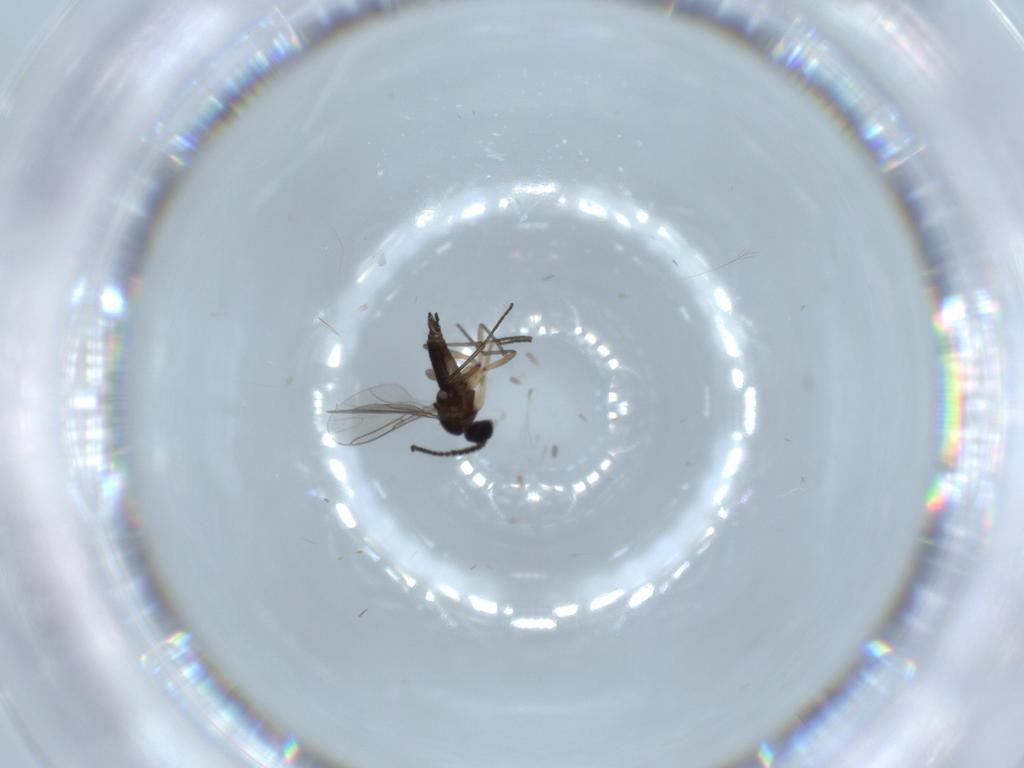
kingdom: Animalia
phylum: Arthropoda
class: Insecta
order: Diptera
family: Sciaridae
